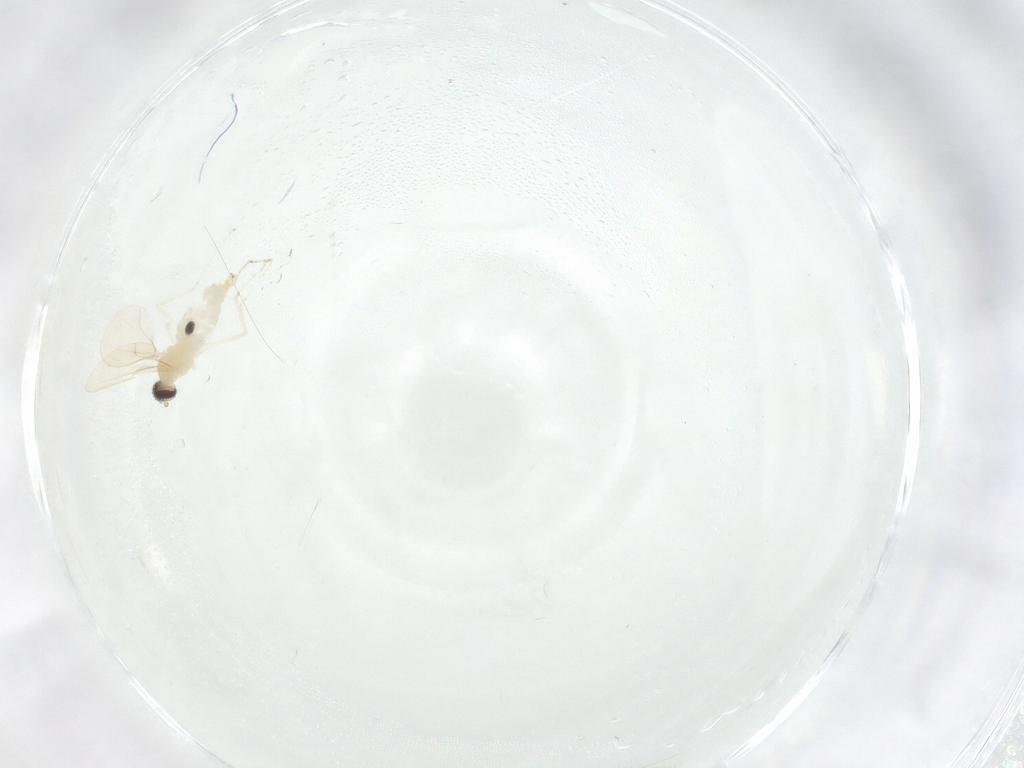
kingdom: Animalia
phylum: Arthropoda
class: Insecta
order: Diptera
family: Cecidomyiidae
